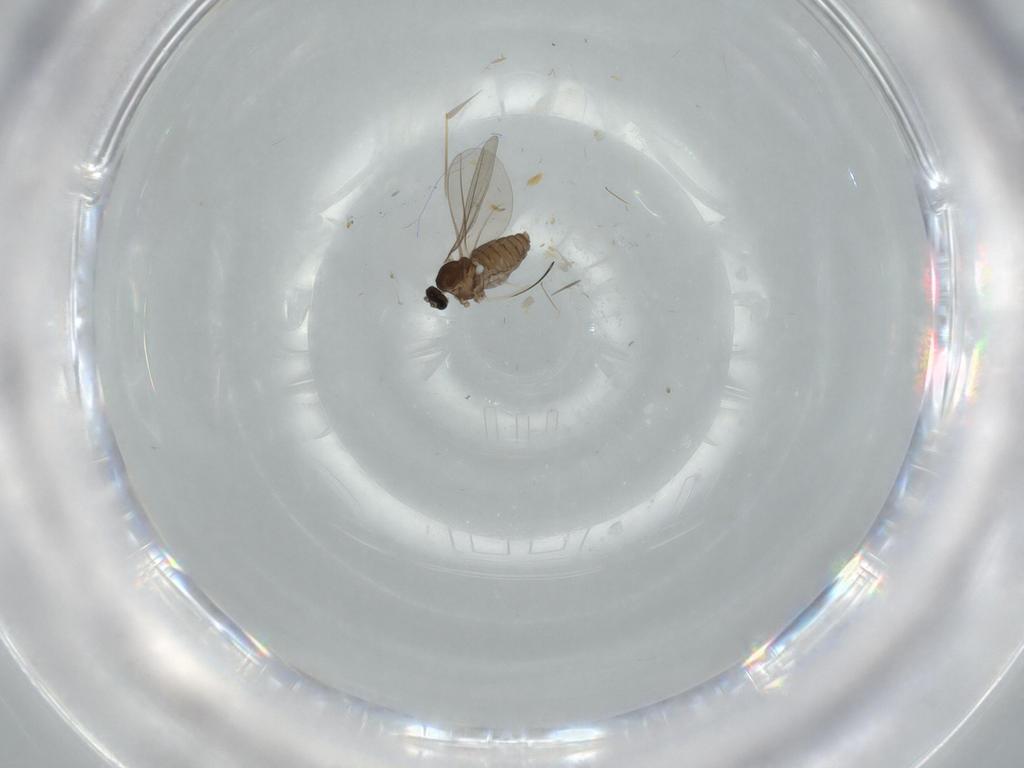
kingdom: Animalia
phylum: Arthropoda
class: Insecta
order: Diptera
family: Cecidomyiidae
